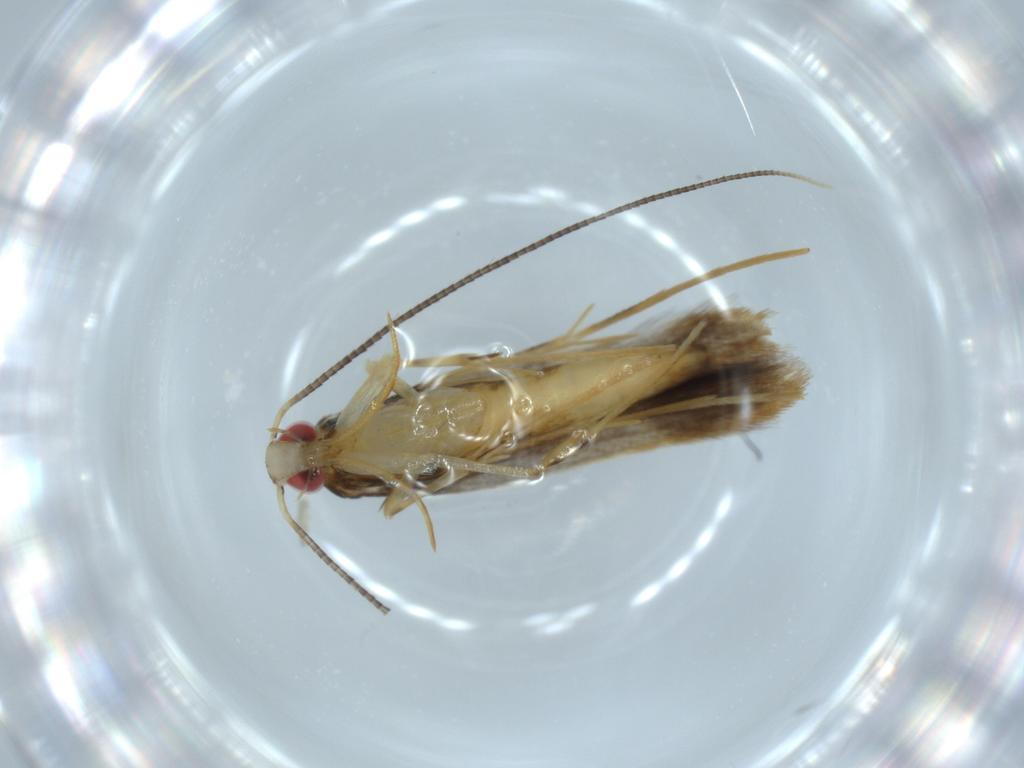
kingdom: Animalia
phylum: Arthropoda
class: Insecta
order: Lepidoptera
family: Gracillariidae
